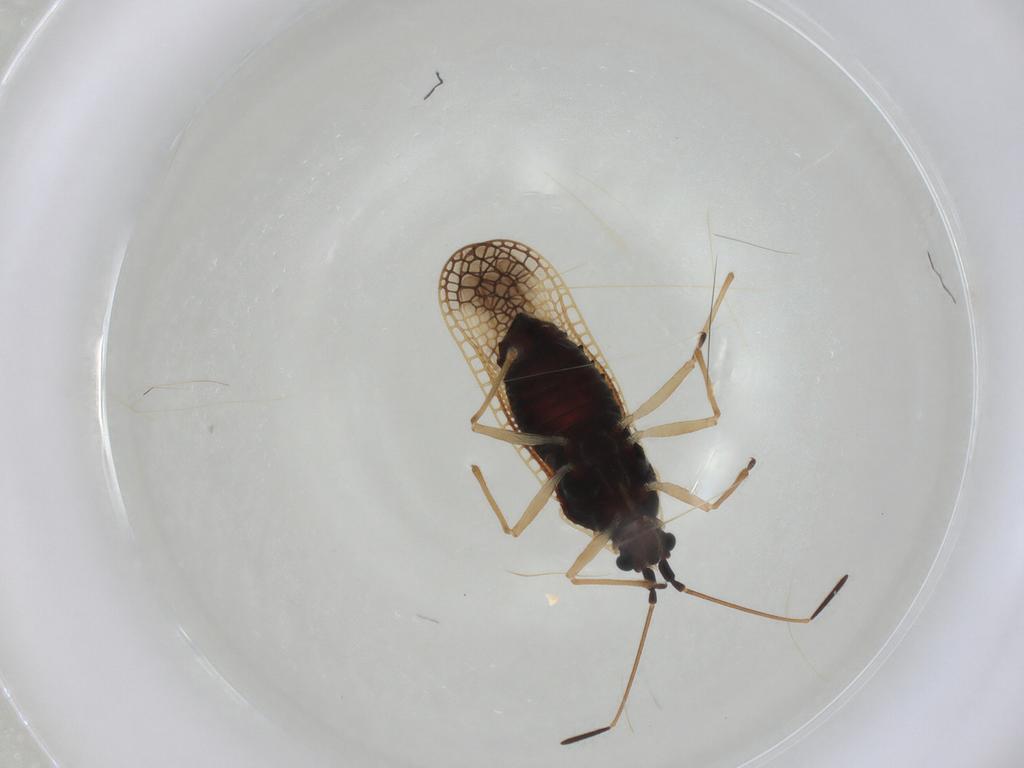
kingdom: Animalia
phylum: Arthropoda
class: Insecta
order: Hemiptera
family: Tingidae
